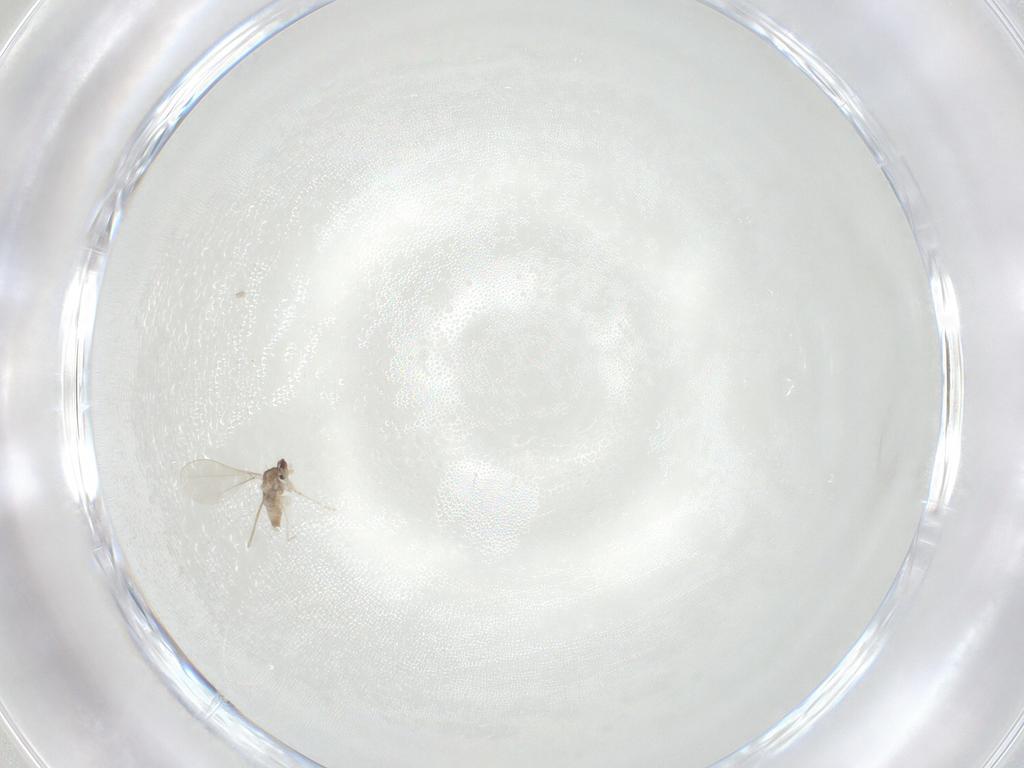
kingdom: Animalia
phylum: Arthropoda
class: Insecta
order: Diptera
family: Cecidomyiidae
